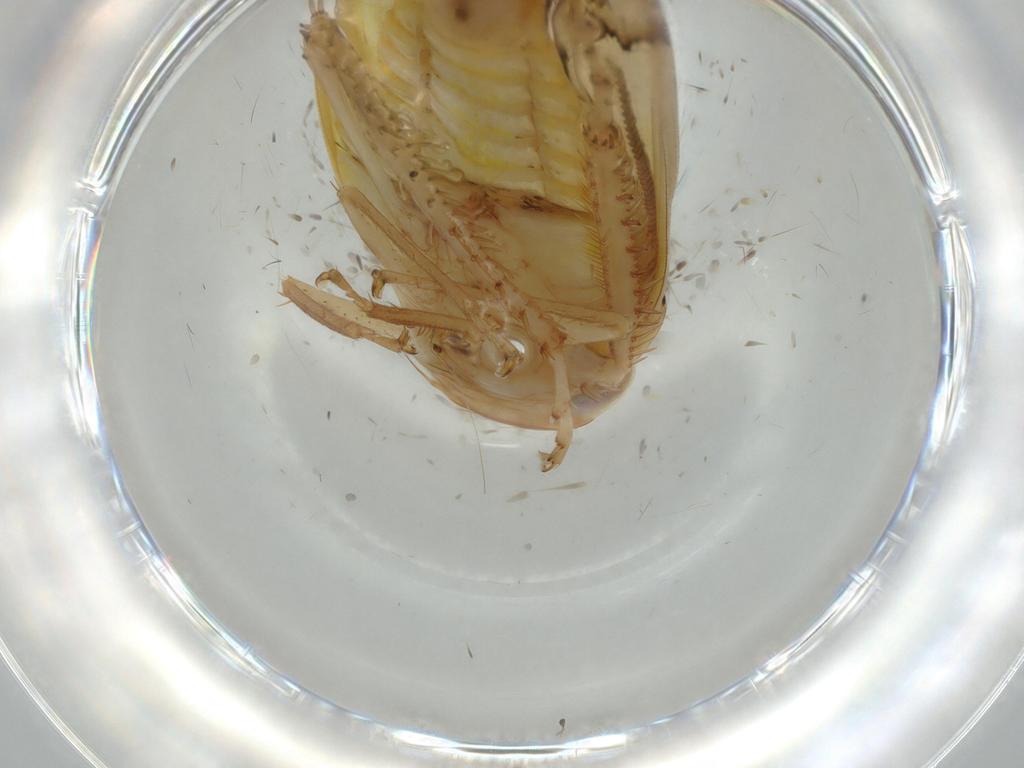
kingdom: Animalia
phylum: Arthropoda
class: Insecta
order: Hemiptera
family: Cicadellidae
